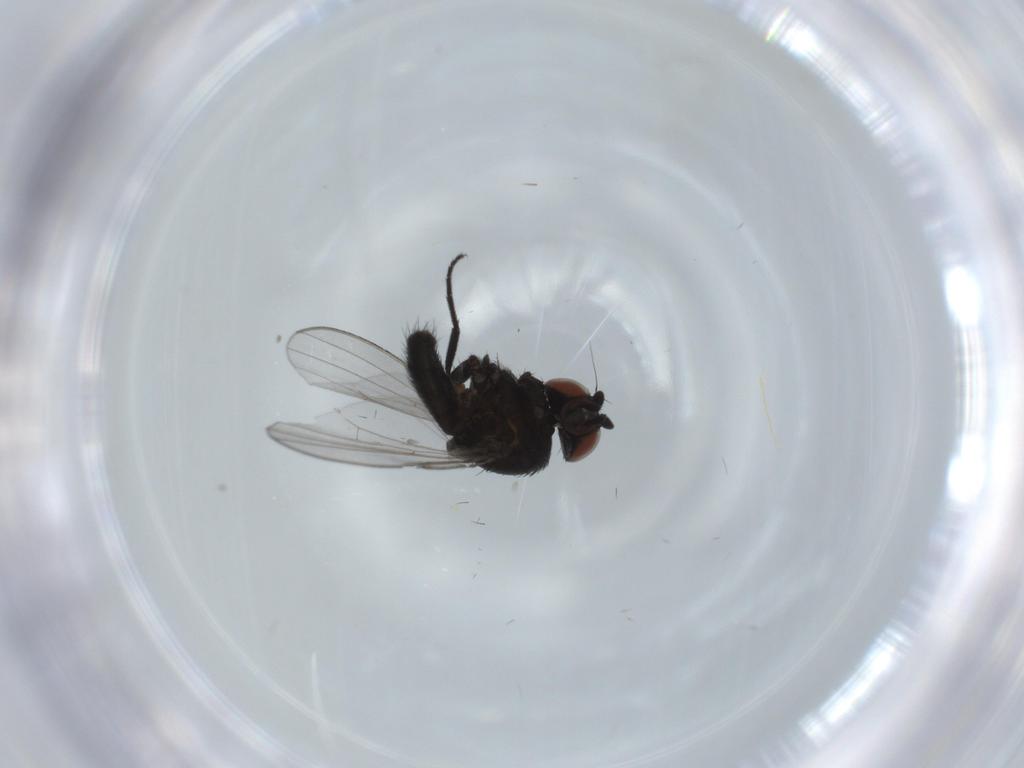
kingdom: Animalia
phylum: Arthropoda
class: Insecta
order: Diptera
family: Milichiidae
